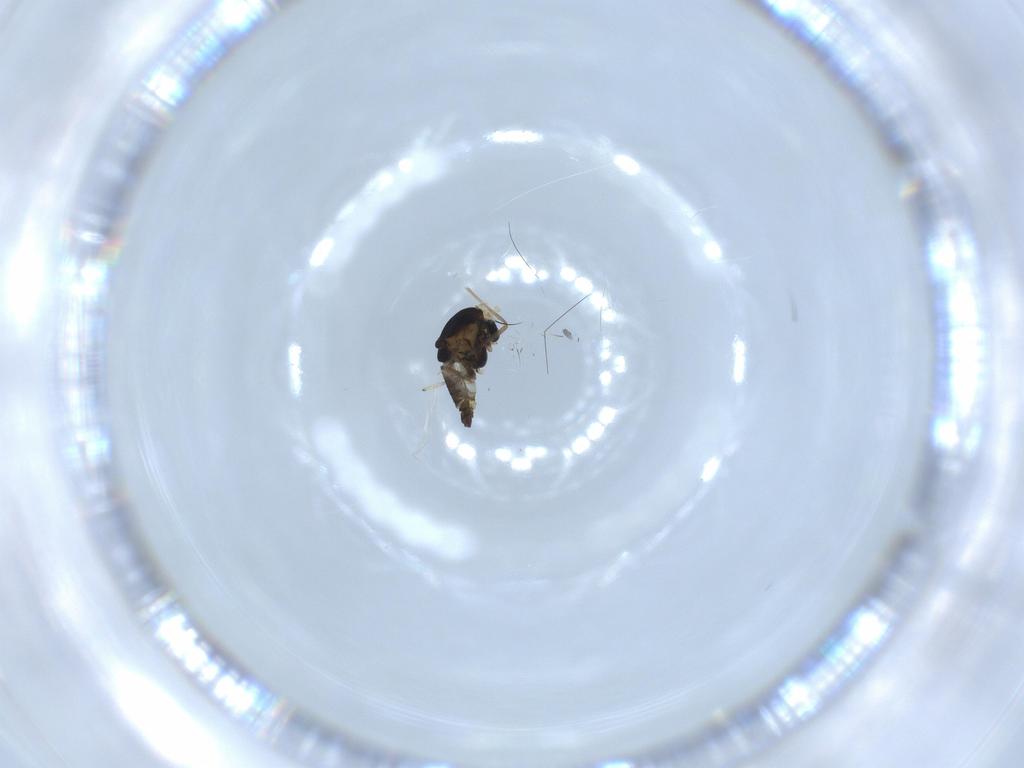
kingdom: Animalia
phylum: Arthropoda
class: Insecta
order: Diptera
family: Chironomidae
